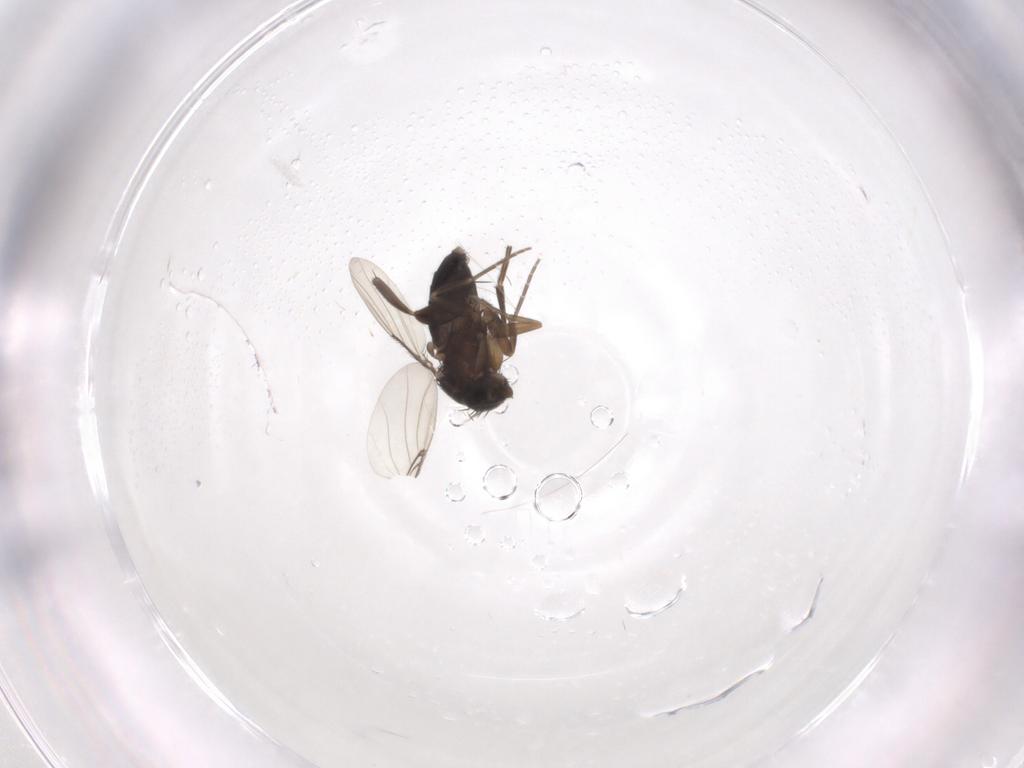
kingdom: Animalia
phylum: Arthropoda
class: Insecta
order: Diptera
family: Phoridae
